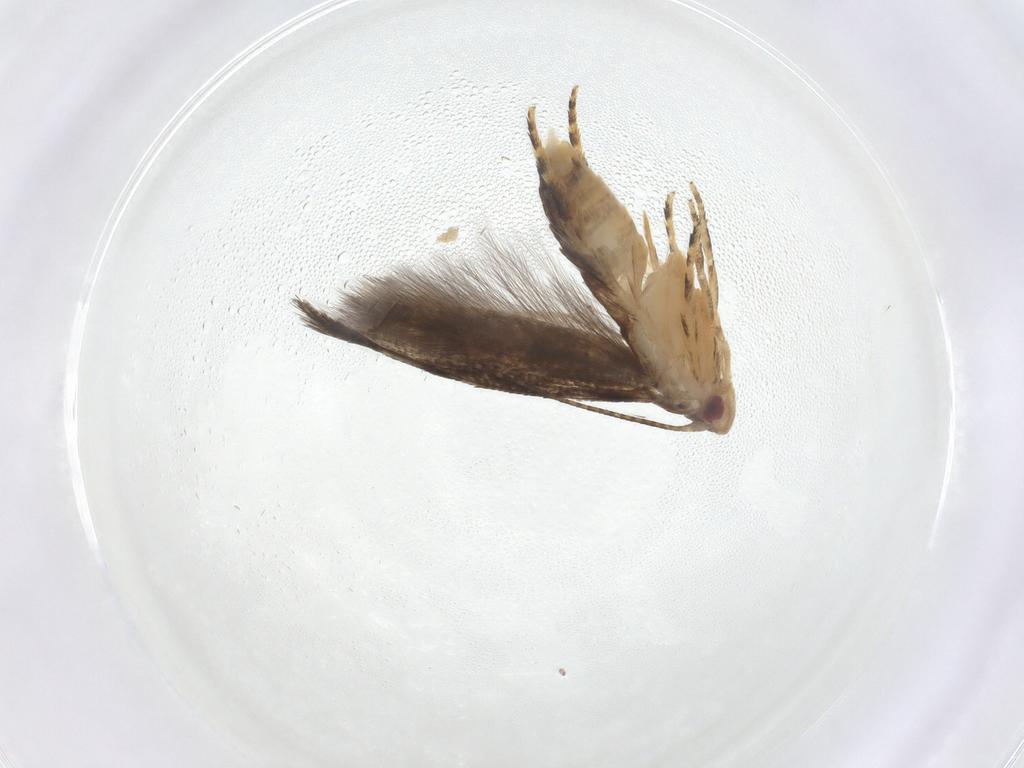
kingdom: Animalia
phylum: Arthropoda
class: Insecta
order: Lepidoptera
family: Momphidae
